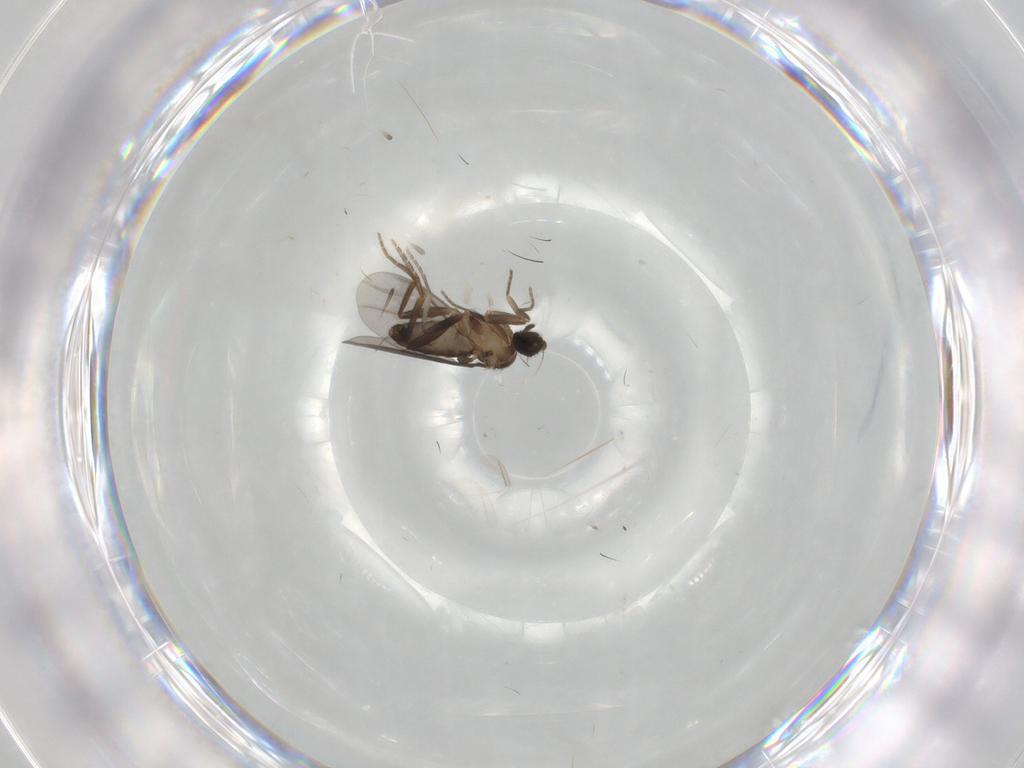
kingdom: Animalia
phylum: Arthropoda
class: Insecta
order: Diptera
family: Phoridae
